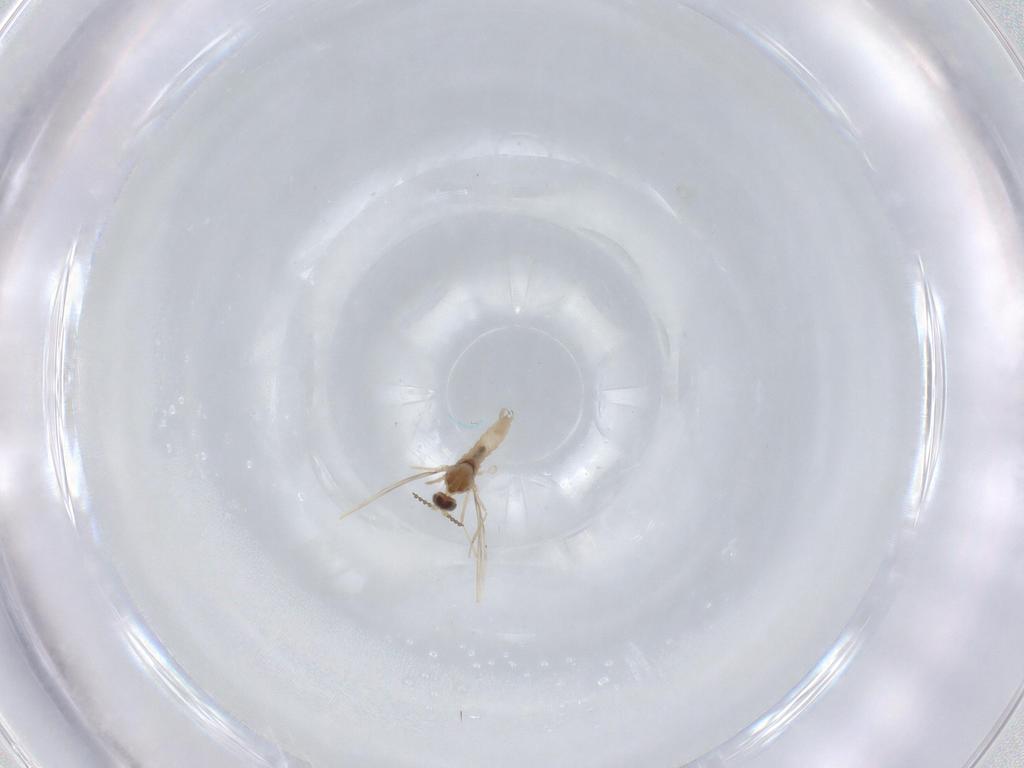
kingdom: Animalia
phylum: Arthropoda
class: Insecta
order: Diptera
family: Cecidomyiidae
